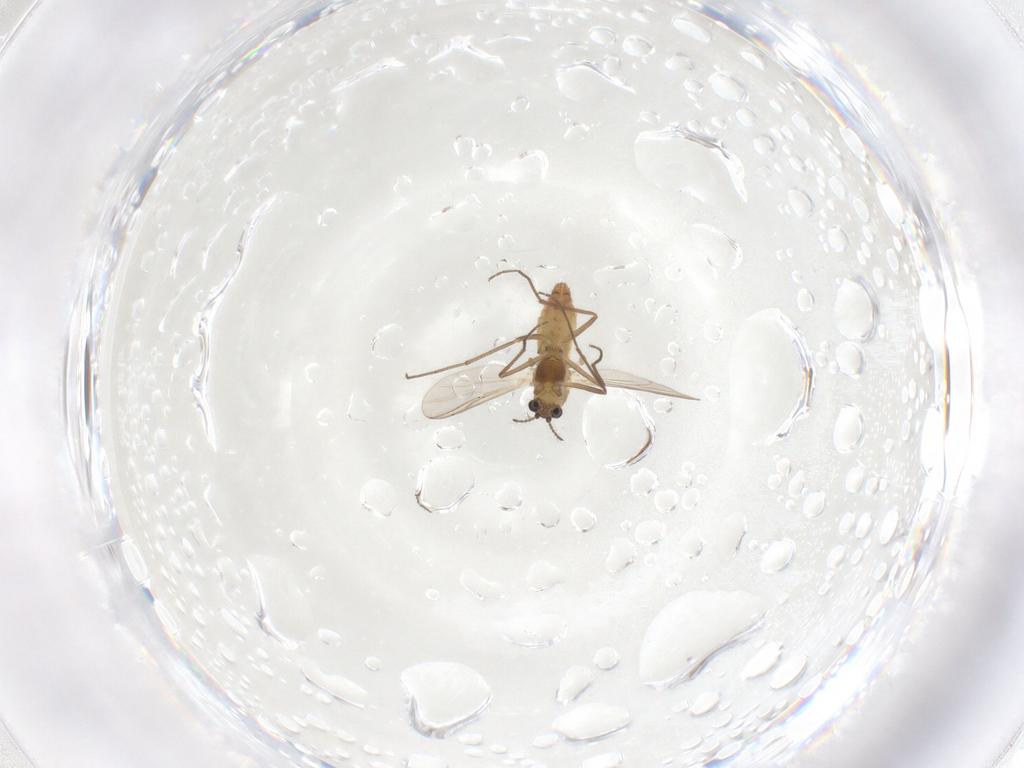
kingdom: Animalia
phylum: Arthropoda
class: Insecta
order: Diptera
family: Chironomidae
